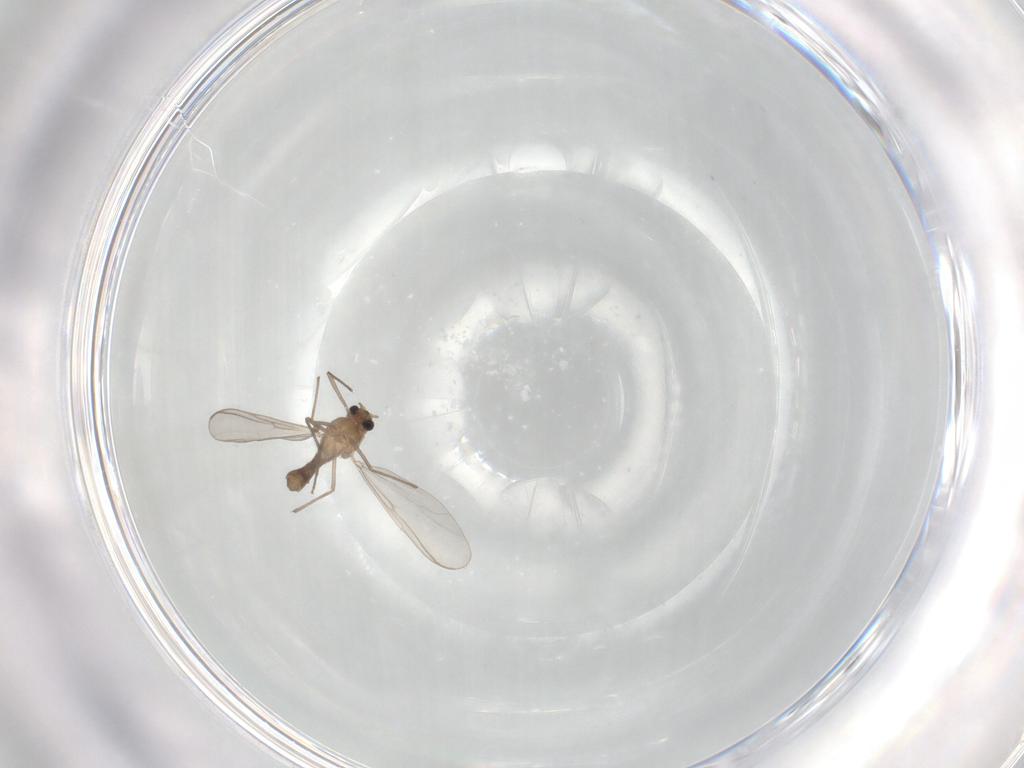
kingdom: Animalia
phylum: Arthropoda
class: Insecta
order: Diptera
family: Chironomidae
